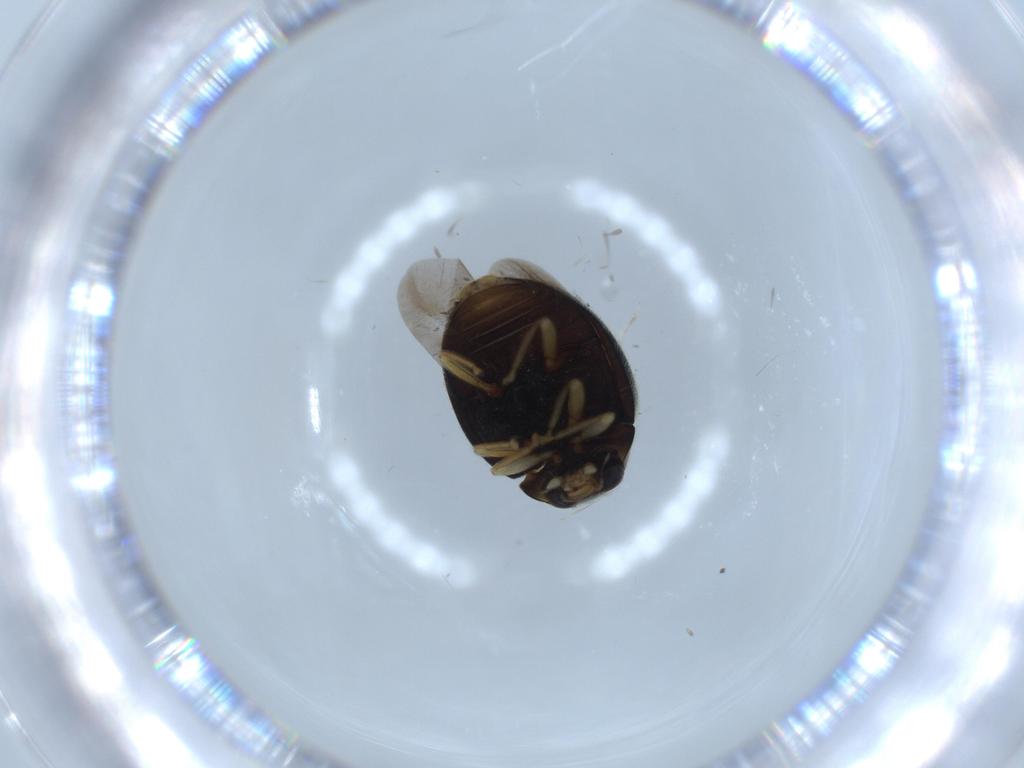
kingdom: Animalia
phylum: Arthropoda
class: Insecta
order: Coleoptera
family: Coccinellidae
